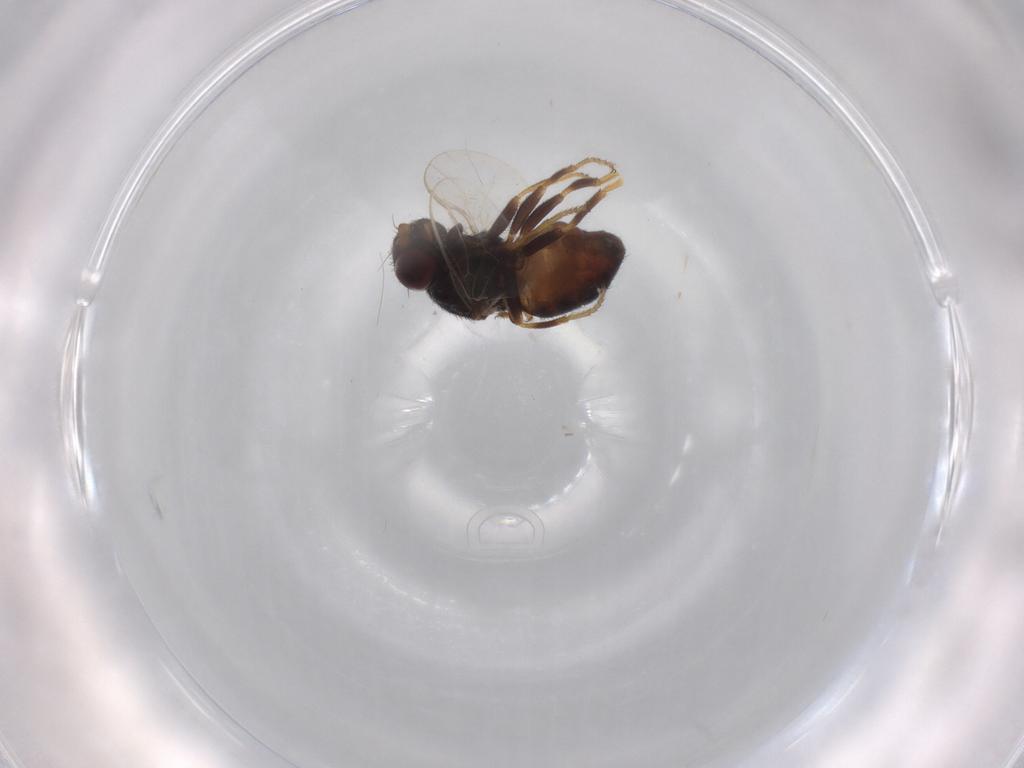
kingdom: Animalia
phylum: Arthropoda
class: Insecta
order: Diptera
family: Chloropidae
